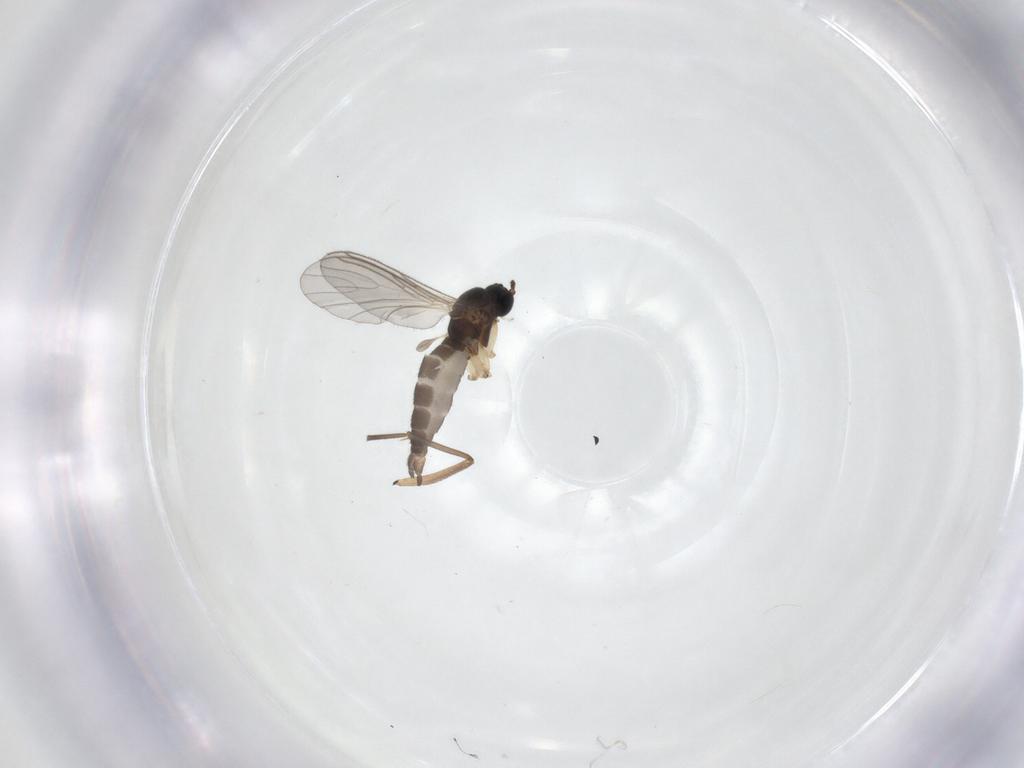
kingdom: Animalia
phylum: Arthropoda
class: Insecta
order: Diptera
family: Sciaridae
